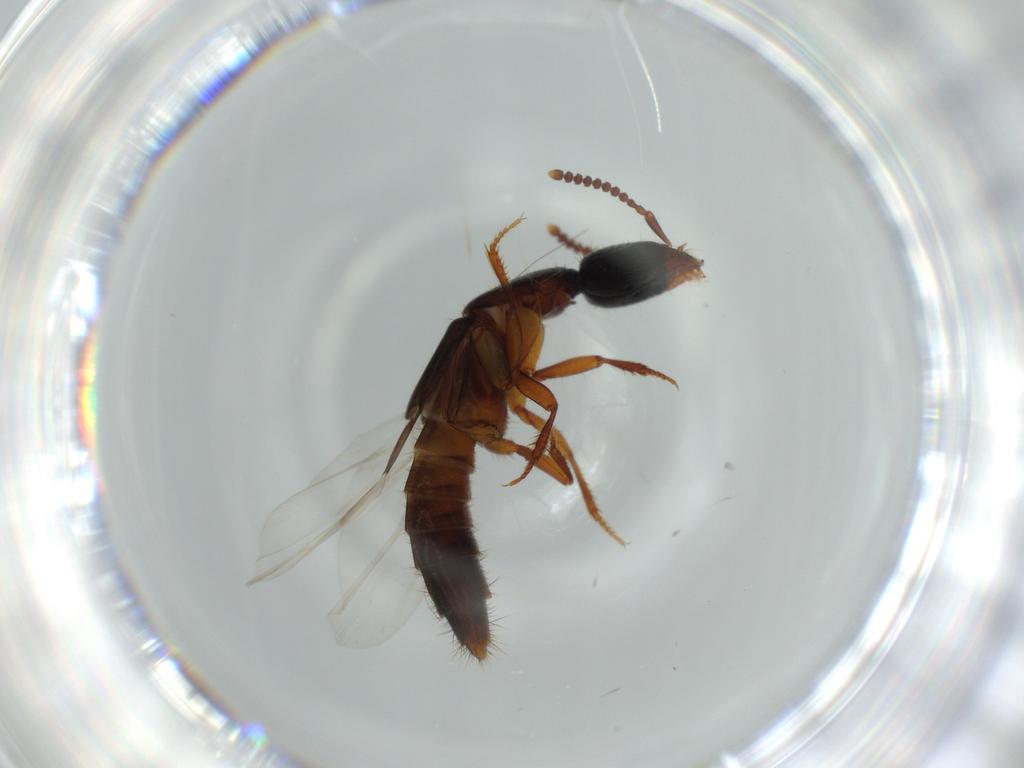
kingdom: Animalia
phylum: Arthropoda
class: Insecta
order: Coleoptera
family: Staphylinidae
